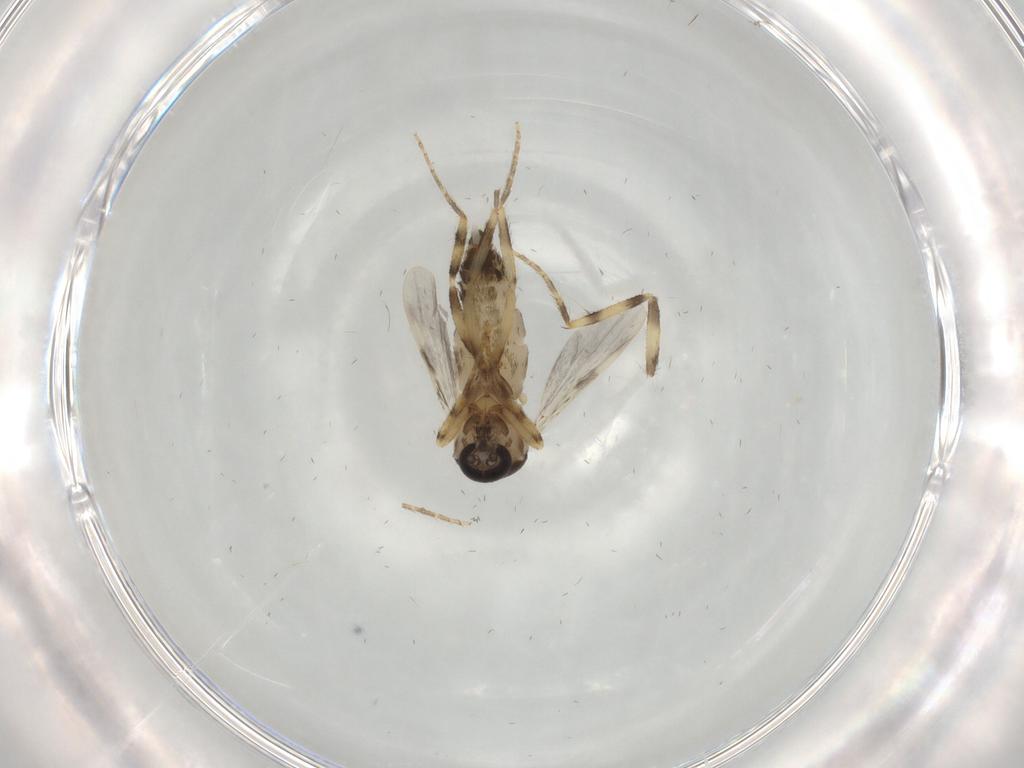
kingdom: Animalia
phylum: Arthropoda
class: Insecta
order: Diptera
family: Ceratopogonidae
